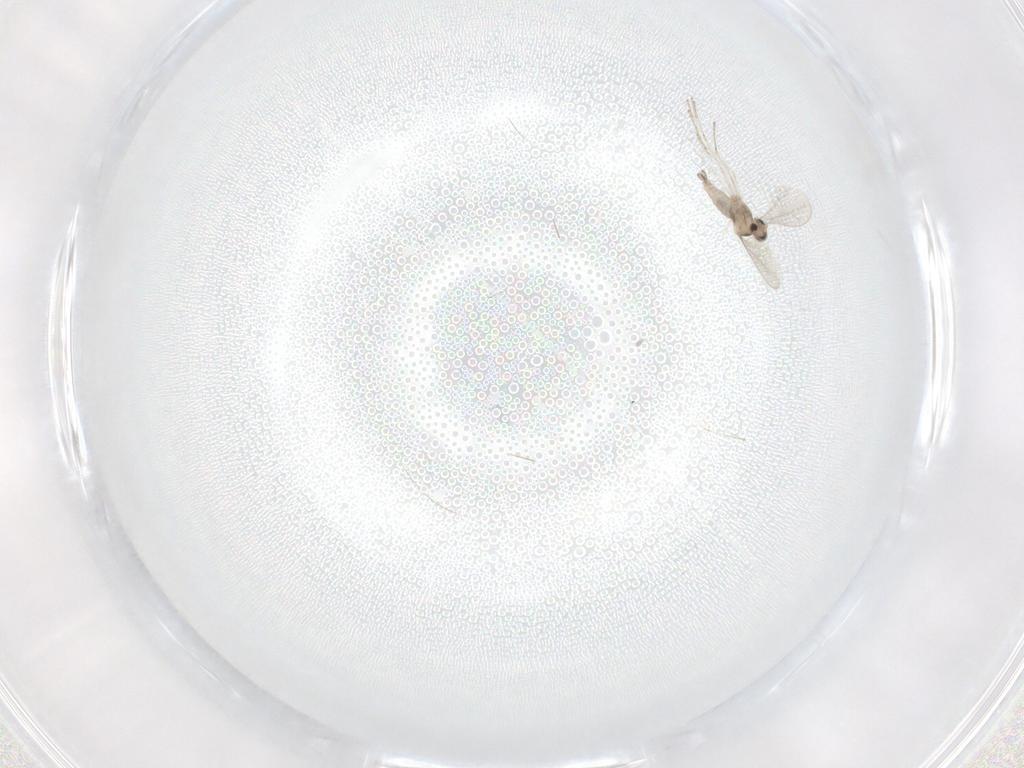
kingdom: Animalia
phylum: Arthropoda
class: Insecta
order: Diptera
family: Cecidomyiidae
